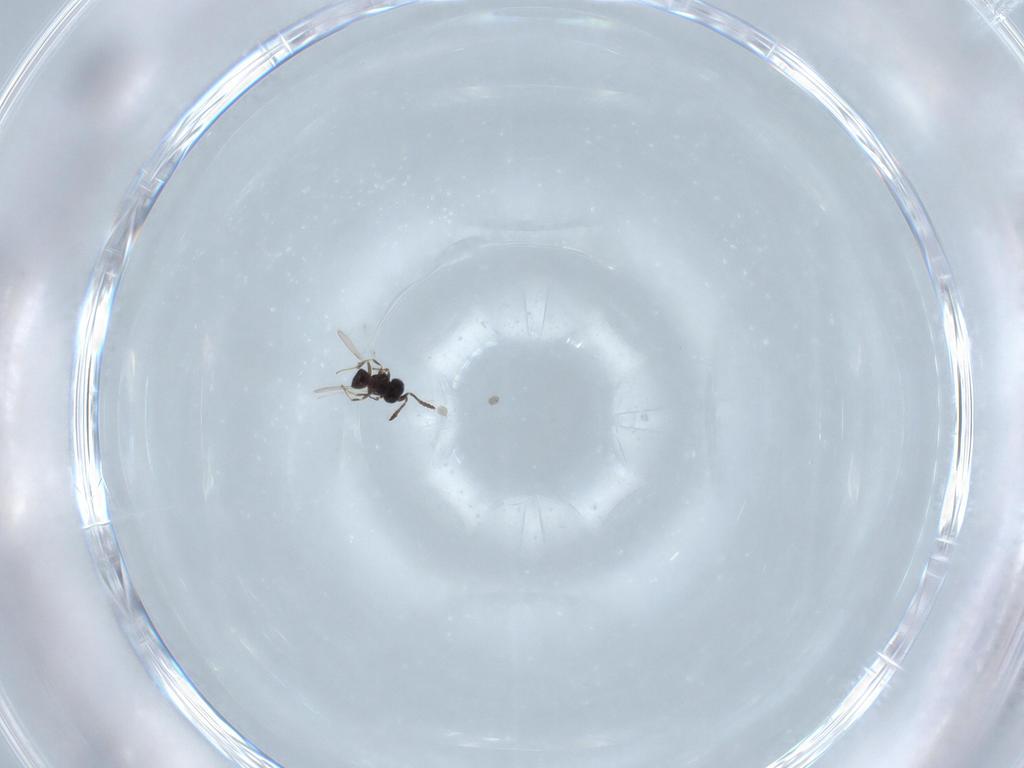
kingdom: Animalia
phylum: Arthropoda
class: Insecta
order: Hymenoptera
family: Scelionidae
